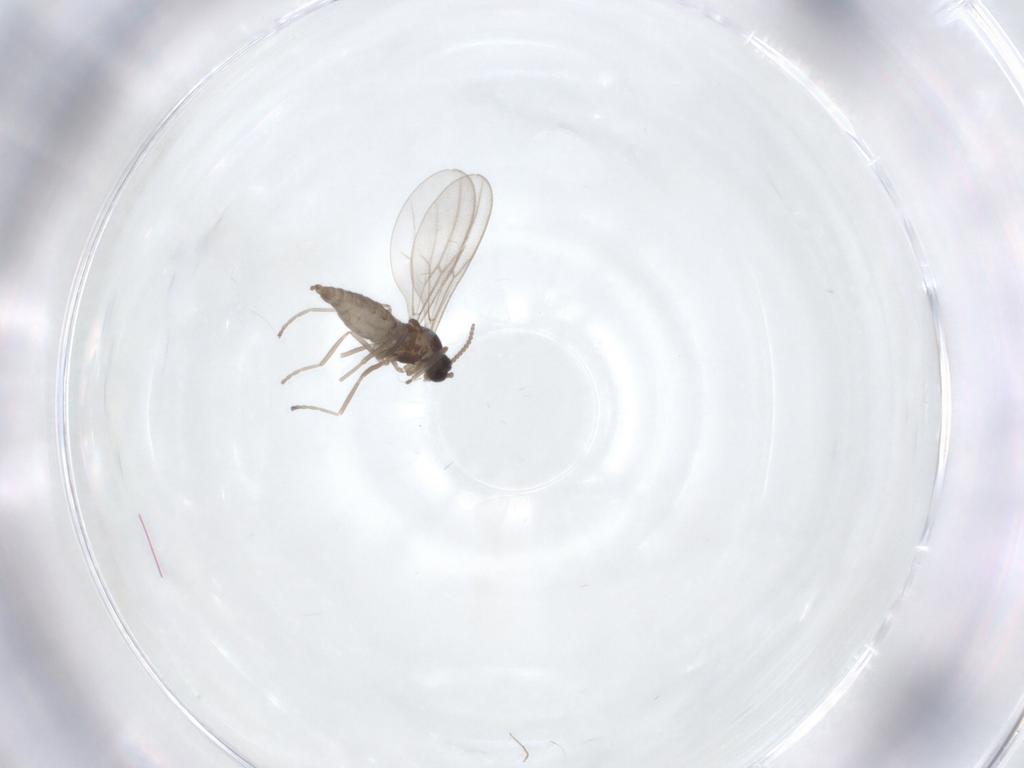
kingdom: Animalia
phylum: Arthropoda
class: Insecta
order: Diptera
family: Cecidomyiidae
